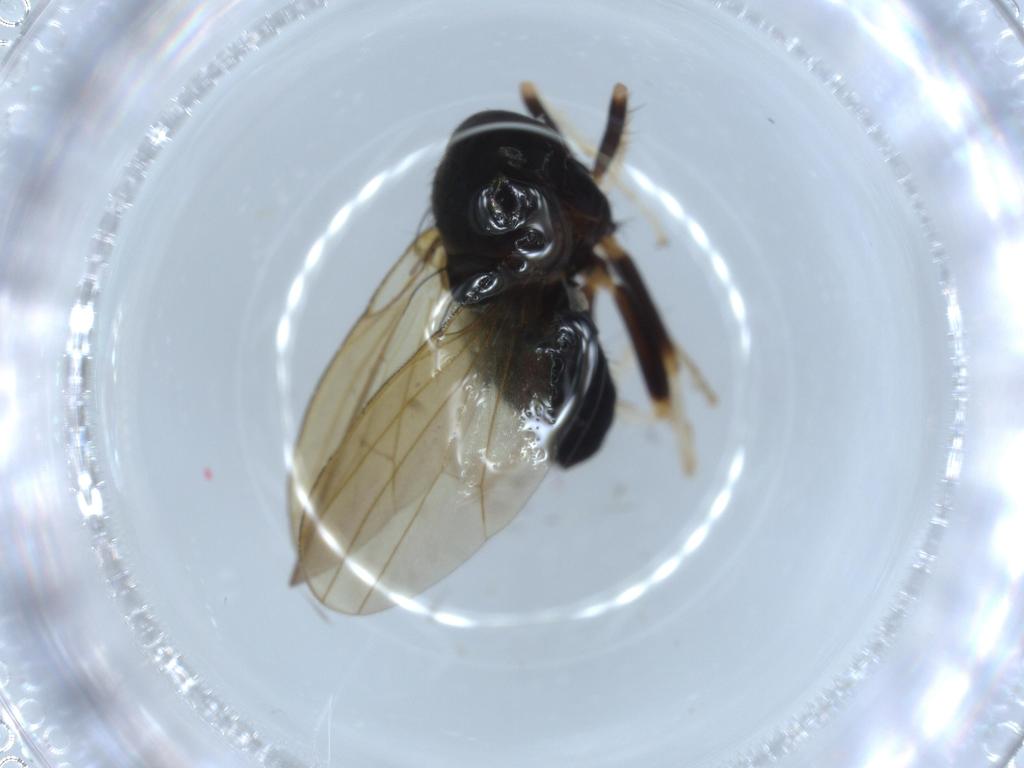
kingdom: Animalia
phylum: Arthropoda
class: Insecta
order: Diptera
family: Lauxaniidae
